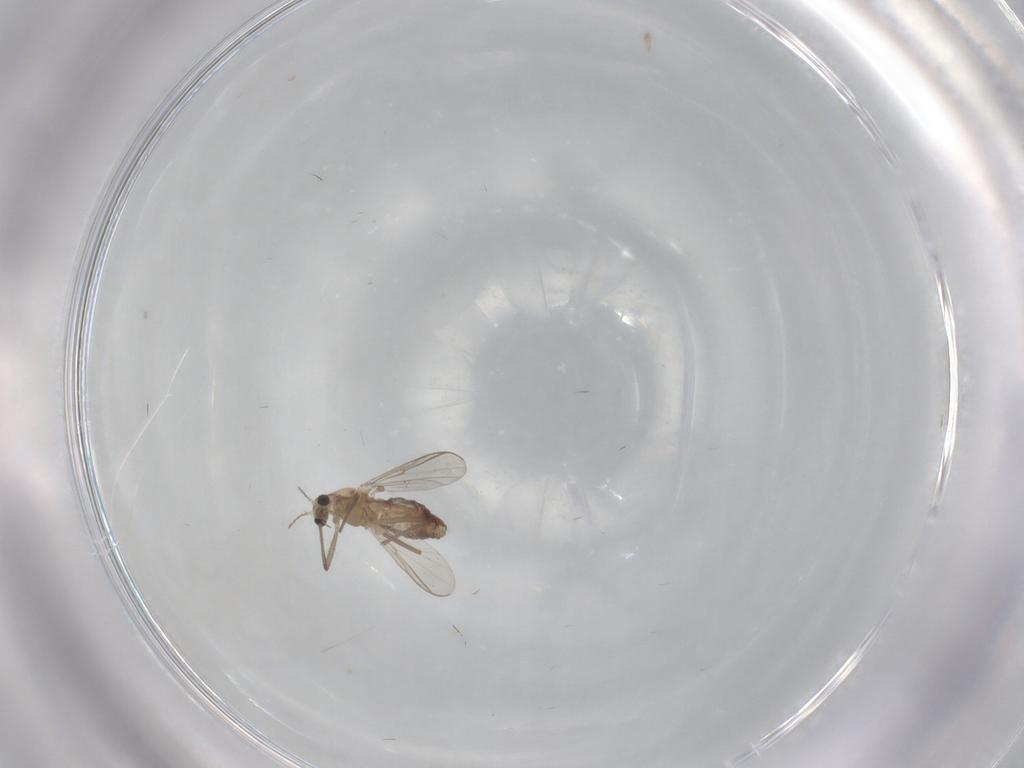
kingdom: Animalia
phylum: Arthropoda
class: Insecta
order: Diptera
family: Chironomidae
